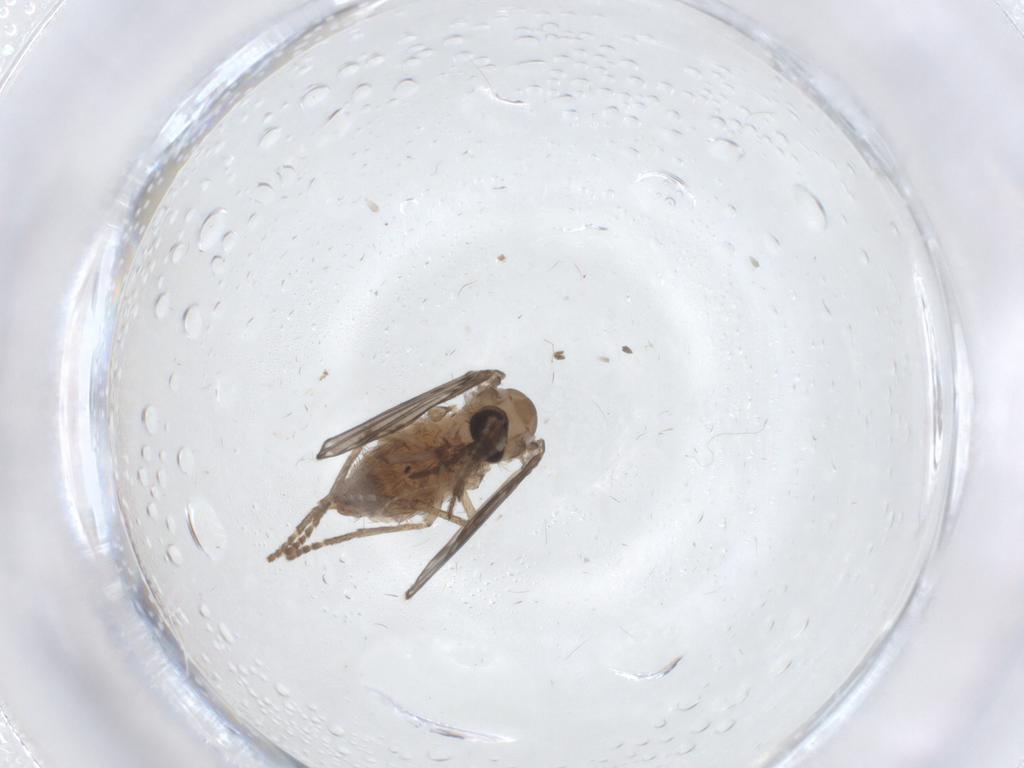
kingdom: Animalia
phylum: Arthropoda
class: Insecta
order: Diptera
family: Psychodidae
